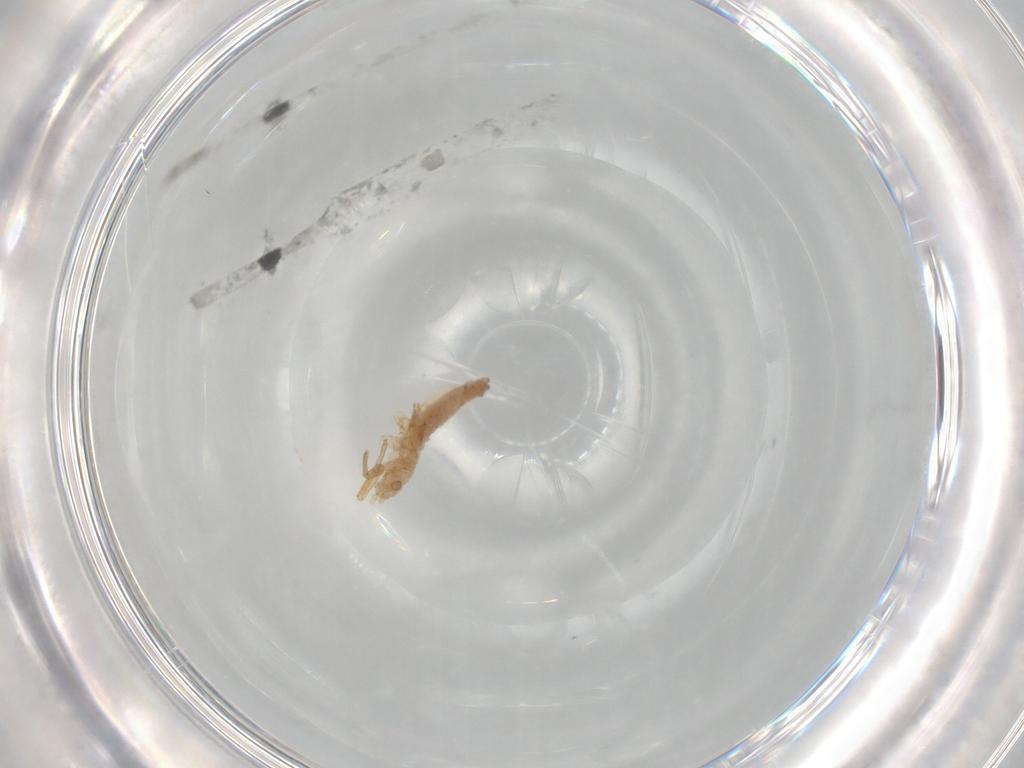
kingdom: Animalia
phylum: Arthropoda
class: Insecta
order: Hemiptera
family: Aphididae
